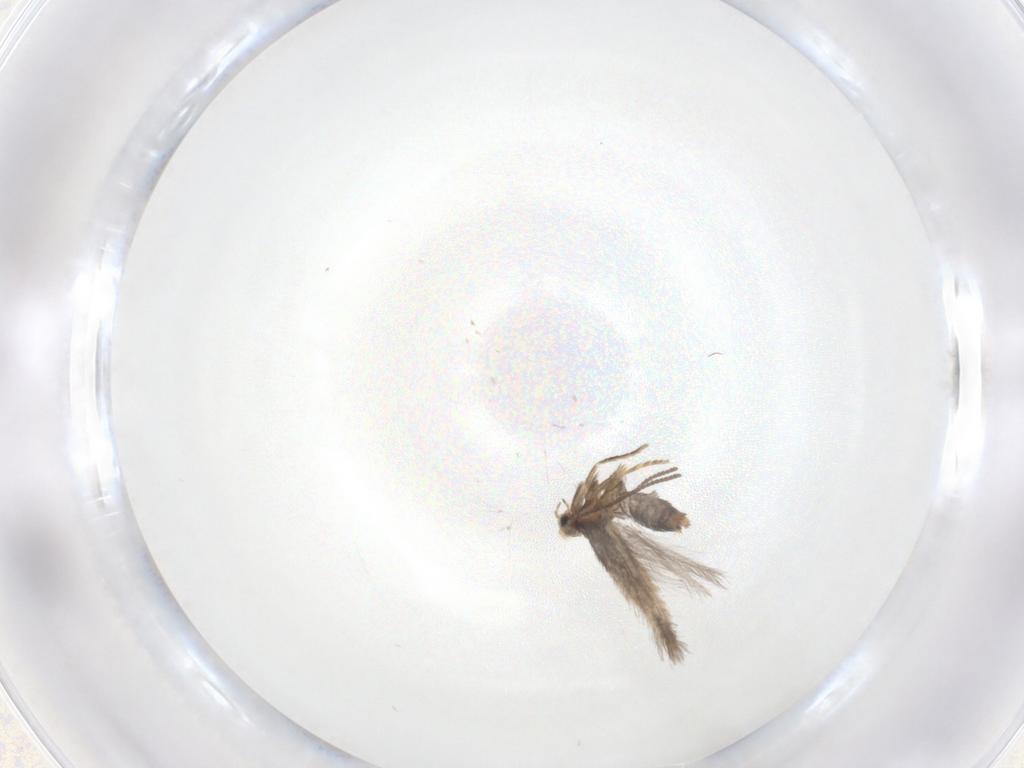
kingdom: Animalia
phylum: Arthropoda
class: Insecta
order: Lepidoptera
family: Nepticulidae
